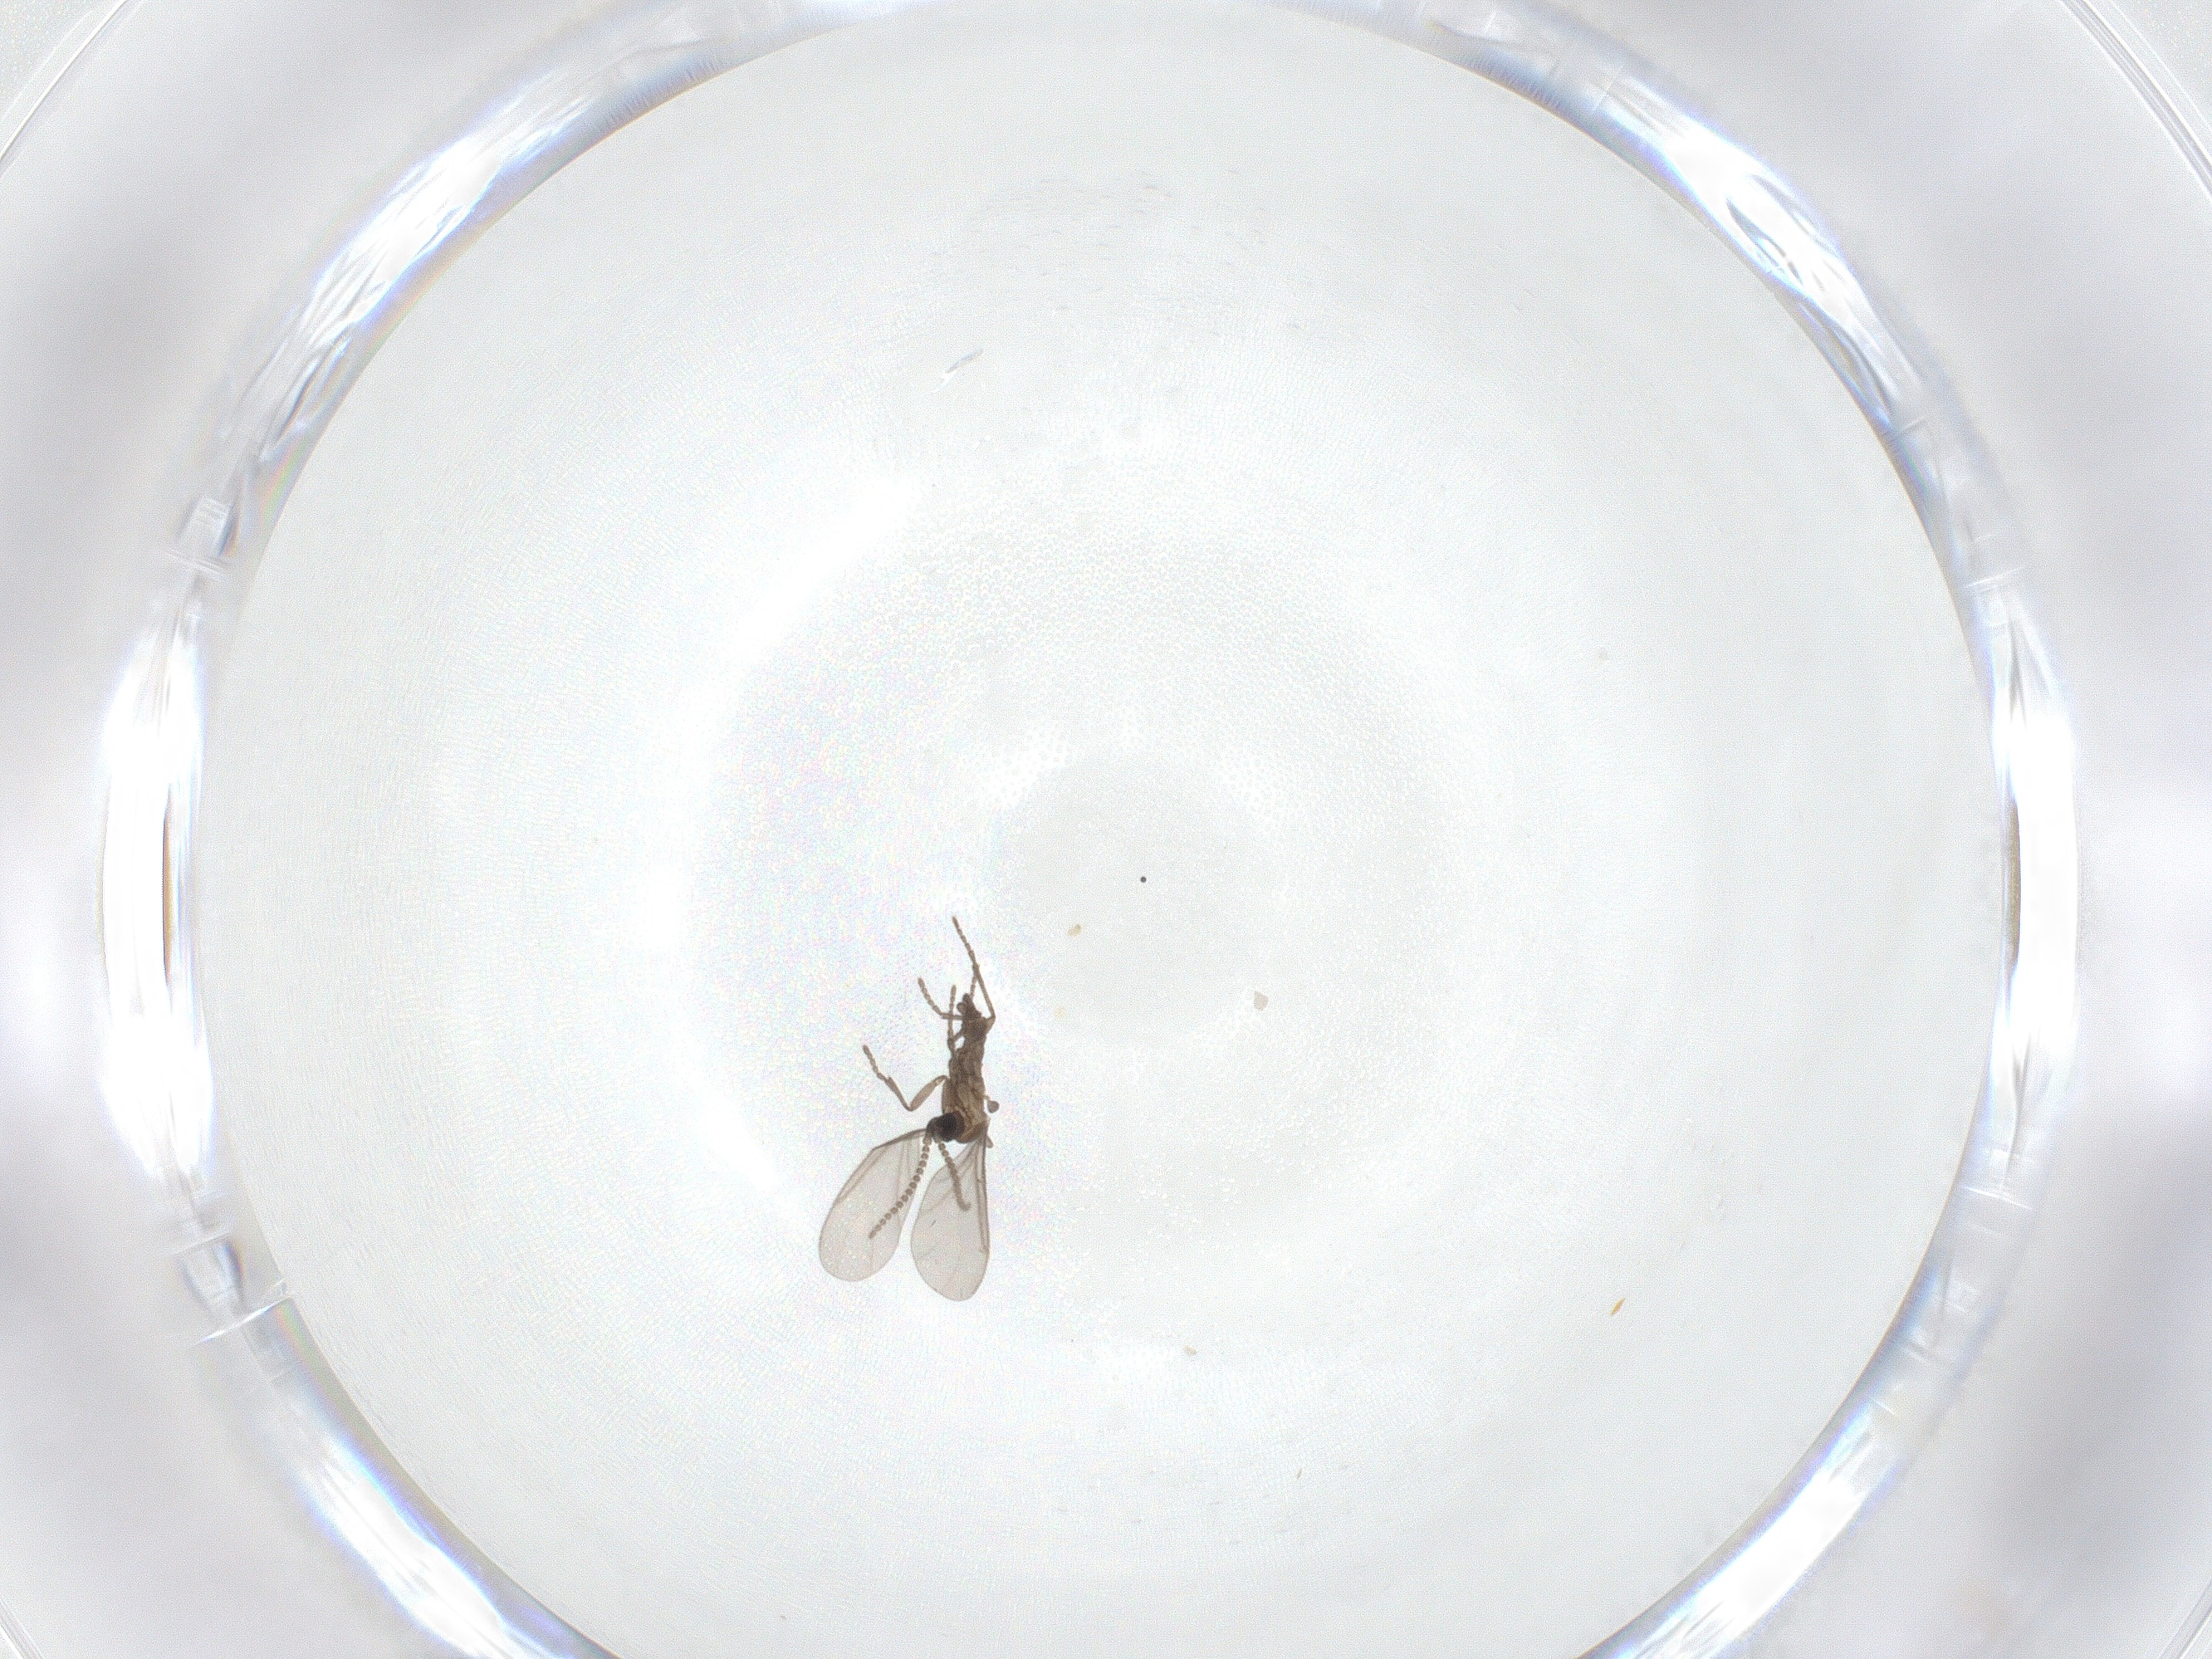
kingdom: Animalia
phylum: Arthropoda
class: Insecta
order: Diptera
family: Sciaridae
